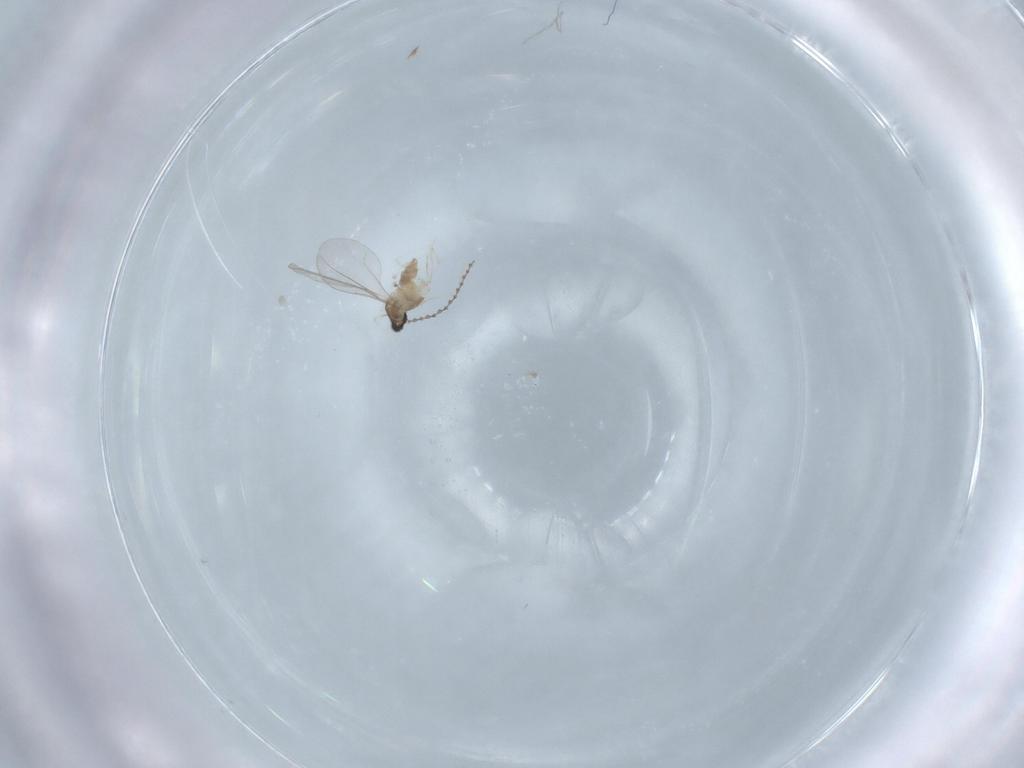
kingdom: Animalia
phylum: Arthropoda
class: Insecta
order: Diptera
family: Cecidomyiidae
